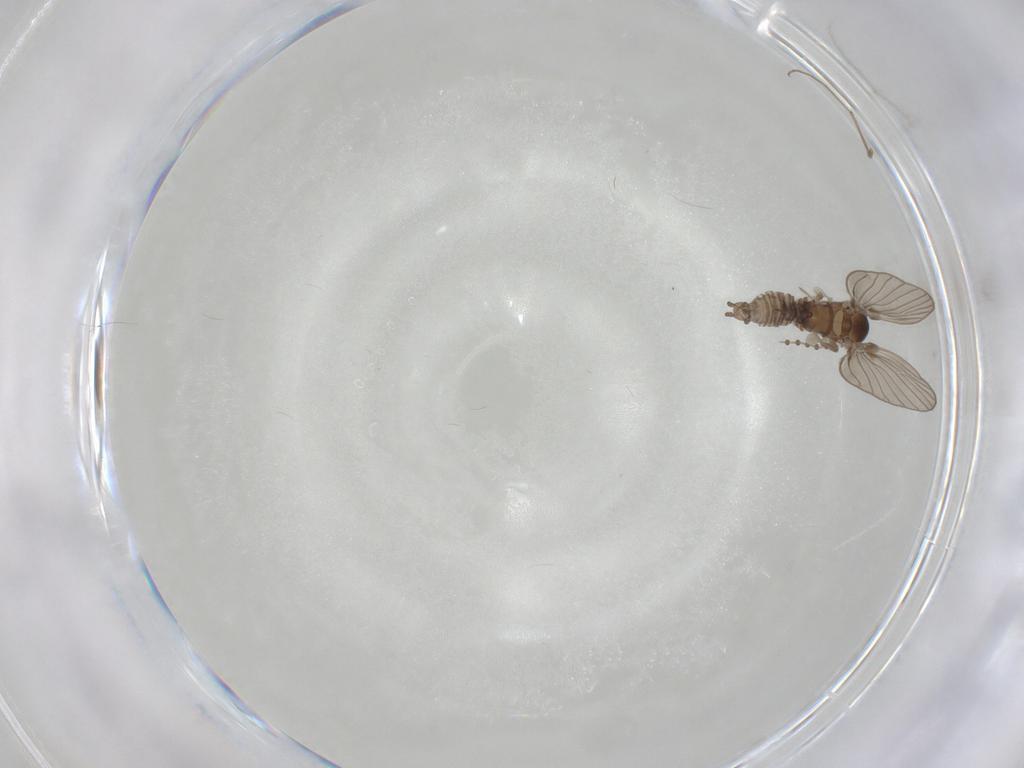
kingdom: Animalia
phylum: Arthropoda
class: Insecta
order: Diptera
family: Psychodidae
